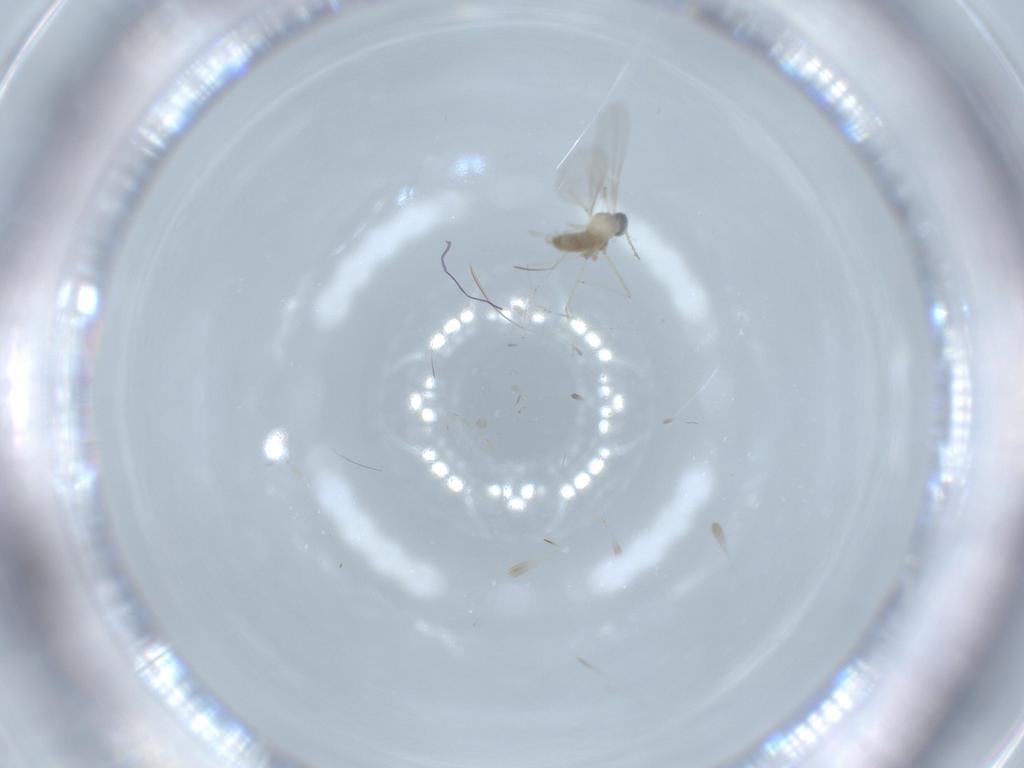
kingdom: Animalia
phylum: Arthropoda
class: Insecta
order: Diptera
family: Cecidomyiidae
